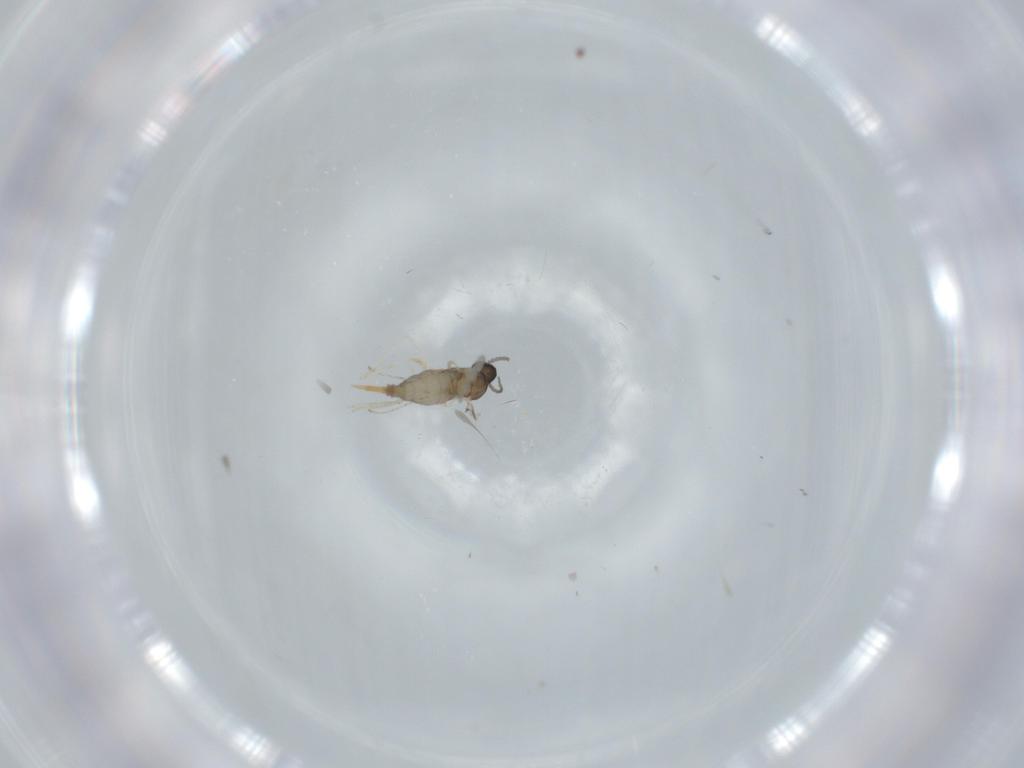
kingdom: Animalia
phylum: Arthropoda
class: Insecta
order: Diptera
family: Cecidomyiidae
